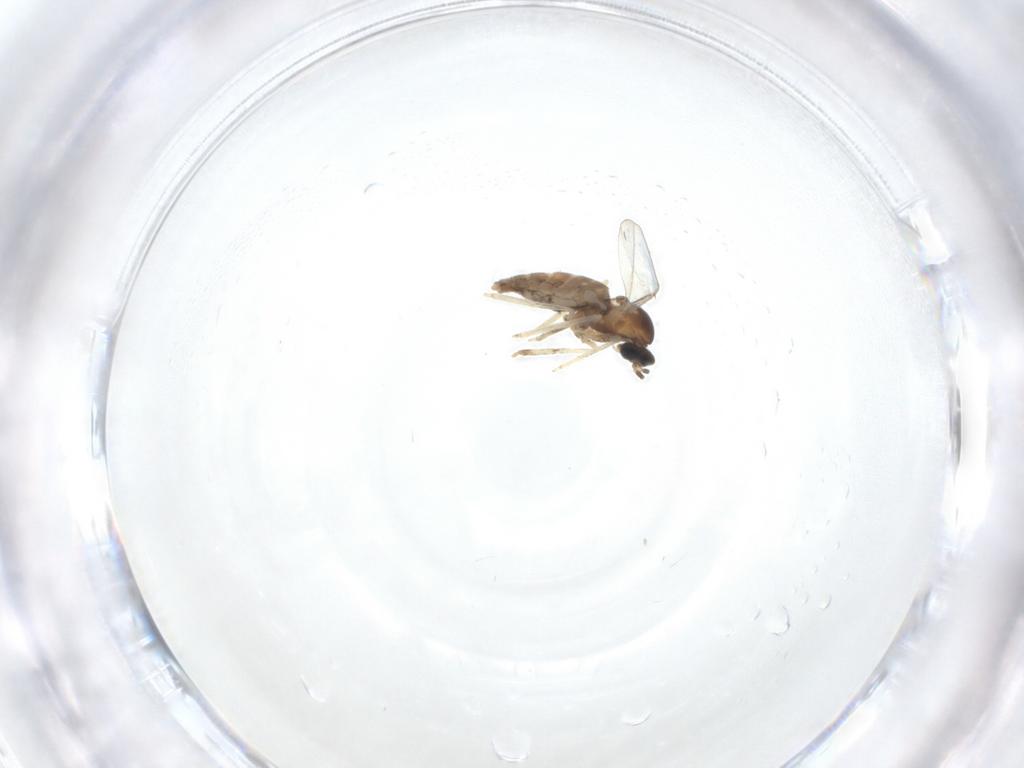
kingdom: Animalia
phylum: Arthropoda
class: Insecta
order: Diptera
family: Cecidomyiidae
